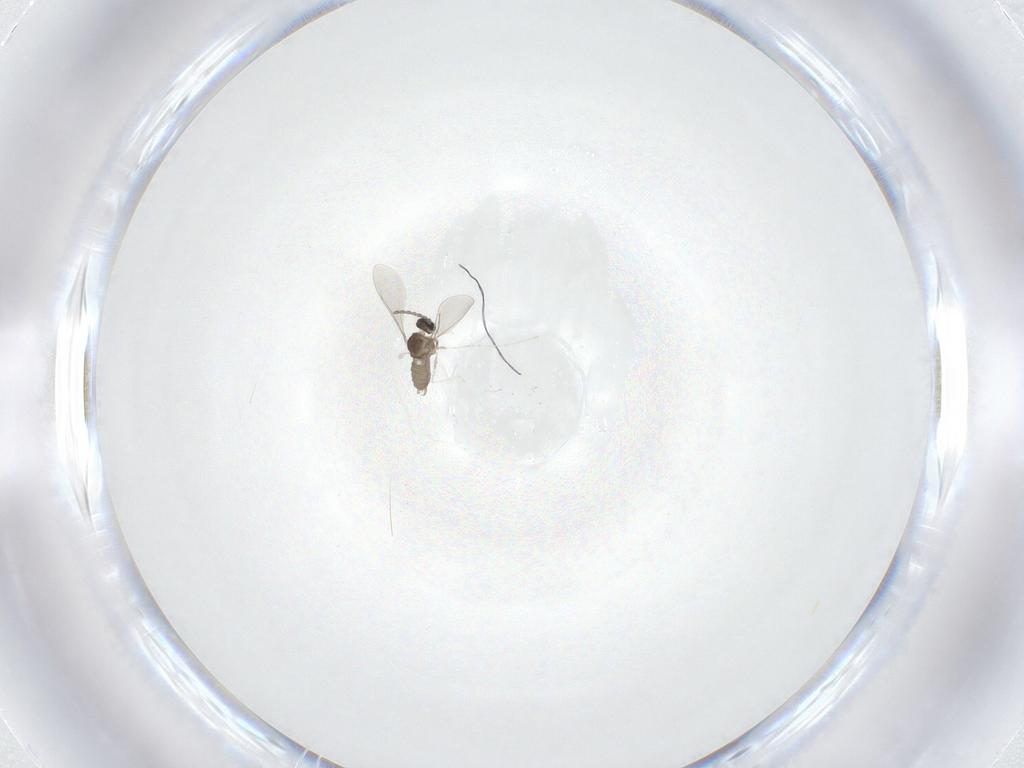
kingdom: Animalia
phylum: Arthropoda
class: Insecta
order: Diptera
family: Cecidomyiidae
